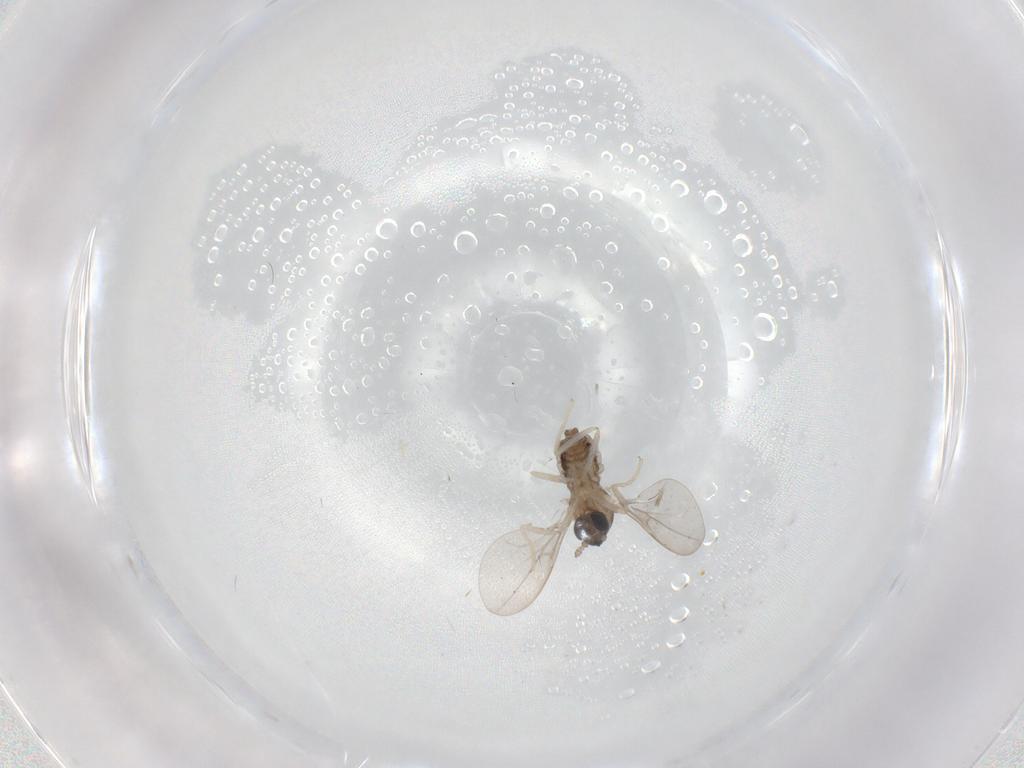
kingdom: Animalia
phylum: Arthropoda
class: Insecta
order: Diptera
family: Cecidomyiidae
